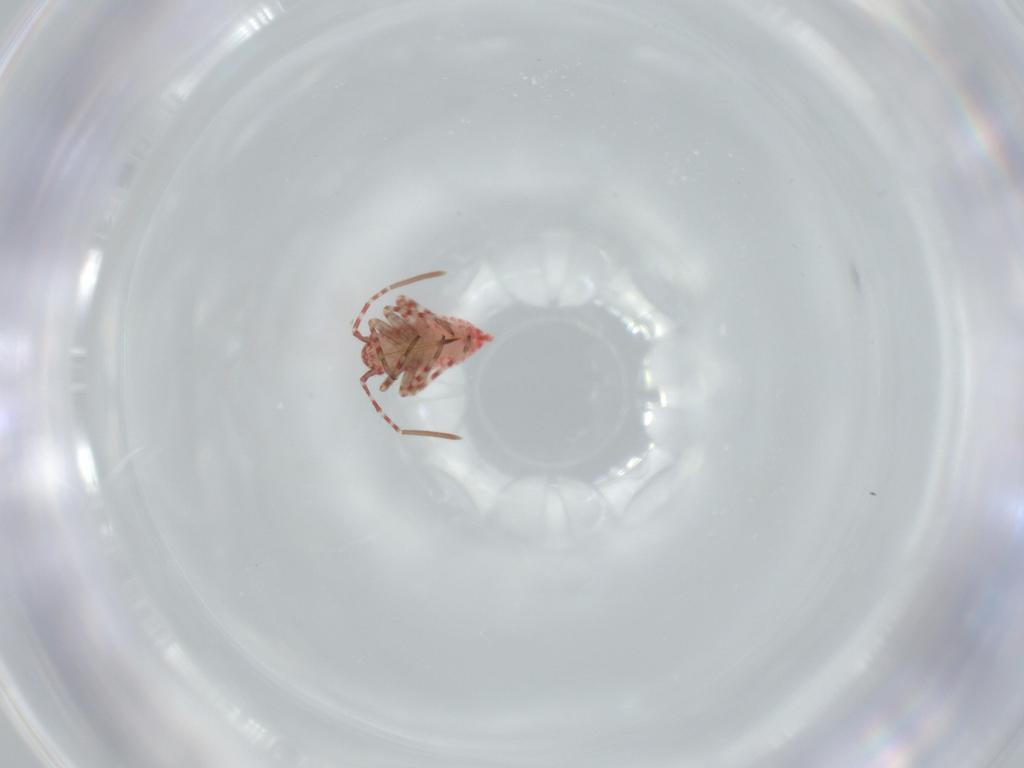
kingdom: Animalia
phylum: Arthropoda
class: Insecta
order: Hemiptera
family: Miridae
